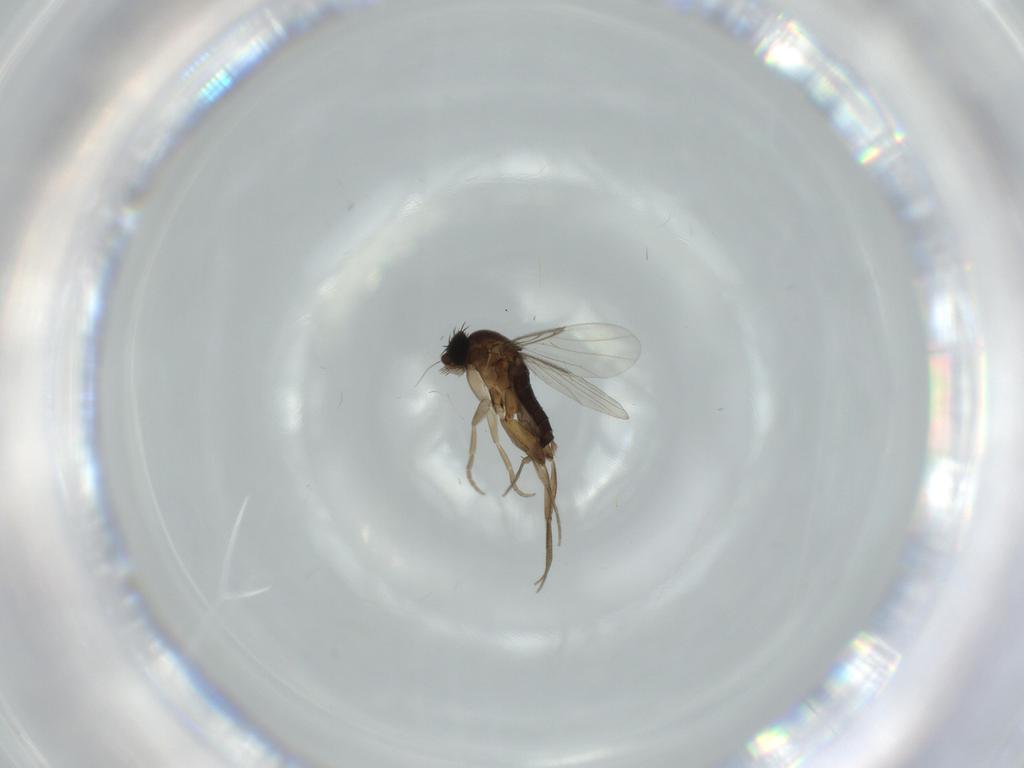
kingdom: Animalia
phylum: Arthropoda
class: Insecta
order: Diptera
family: Phoridae
